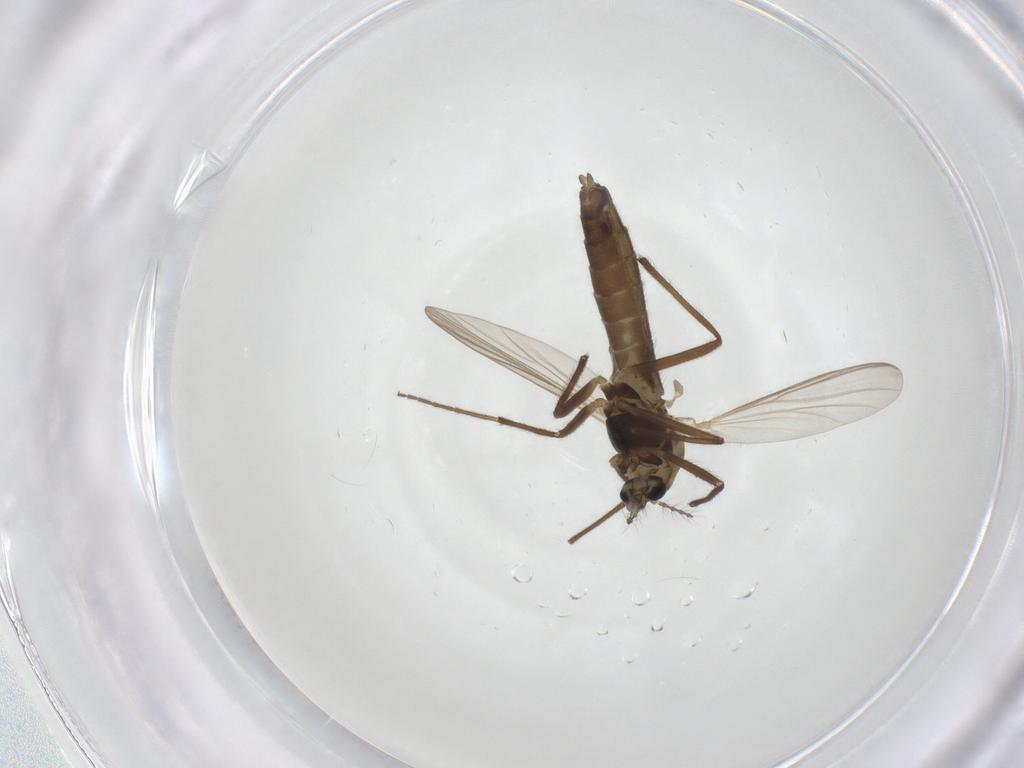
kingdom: Animalia
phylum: Arthropoda
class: Insecta
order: Diptera
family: Chironomidae
